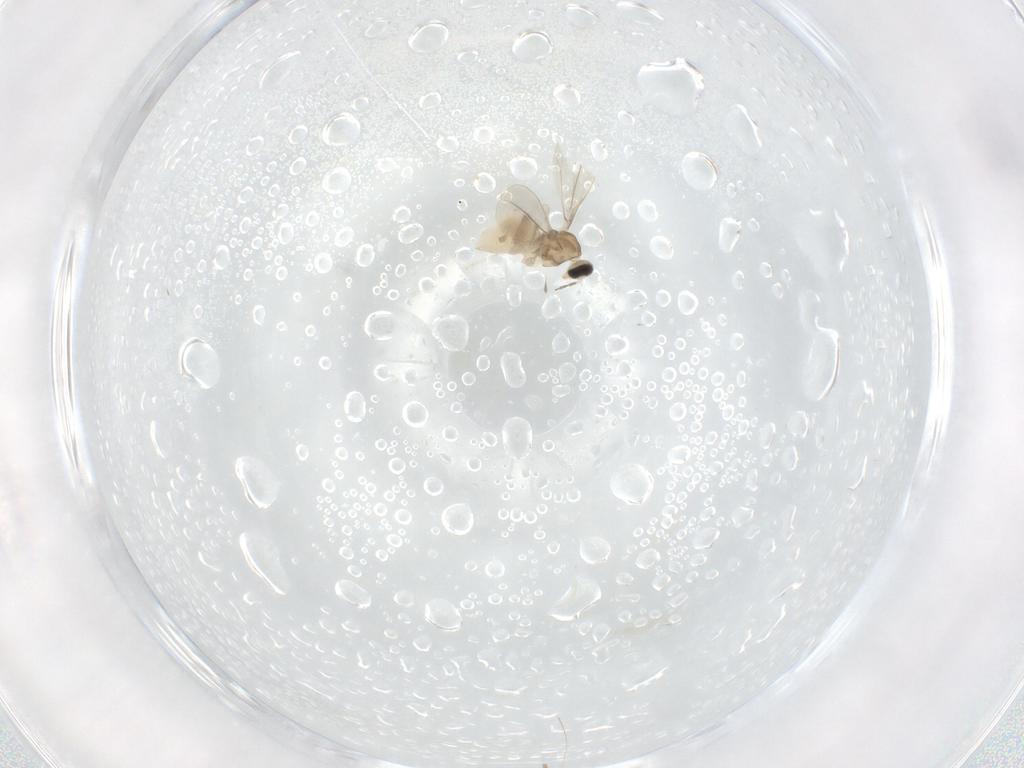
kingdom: Animalia
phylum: Arthropoda
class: Insecta
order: Diptera
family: Cecidomyiidae
